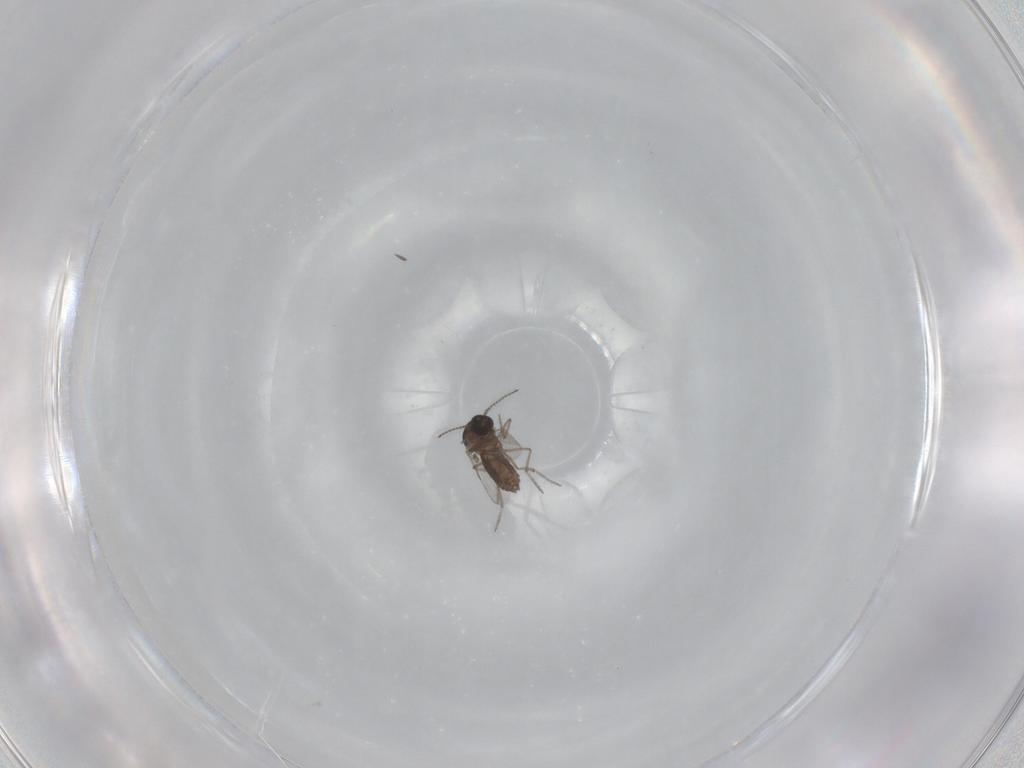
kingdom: Animalia
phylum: Arthropoda
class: Insecta
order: Diptera
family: Ceratopogonidae
